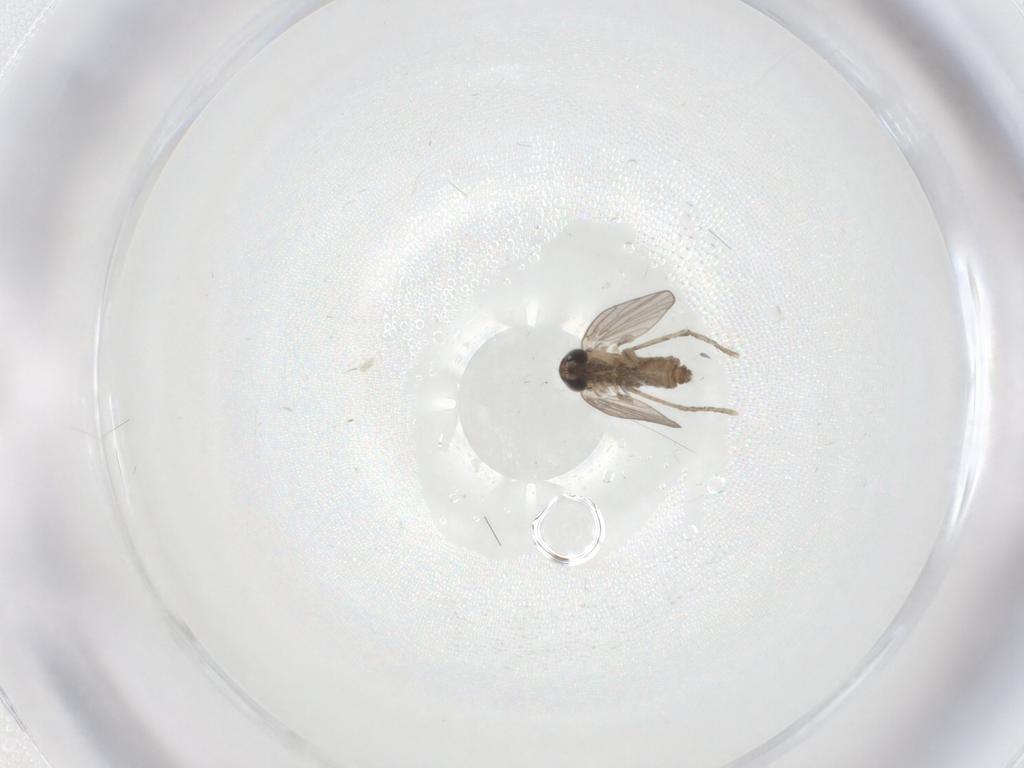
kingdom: Animalia
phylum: Arthropoda
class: Insecta
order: Diptera
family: Psychodidae
